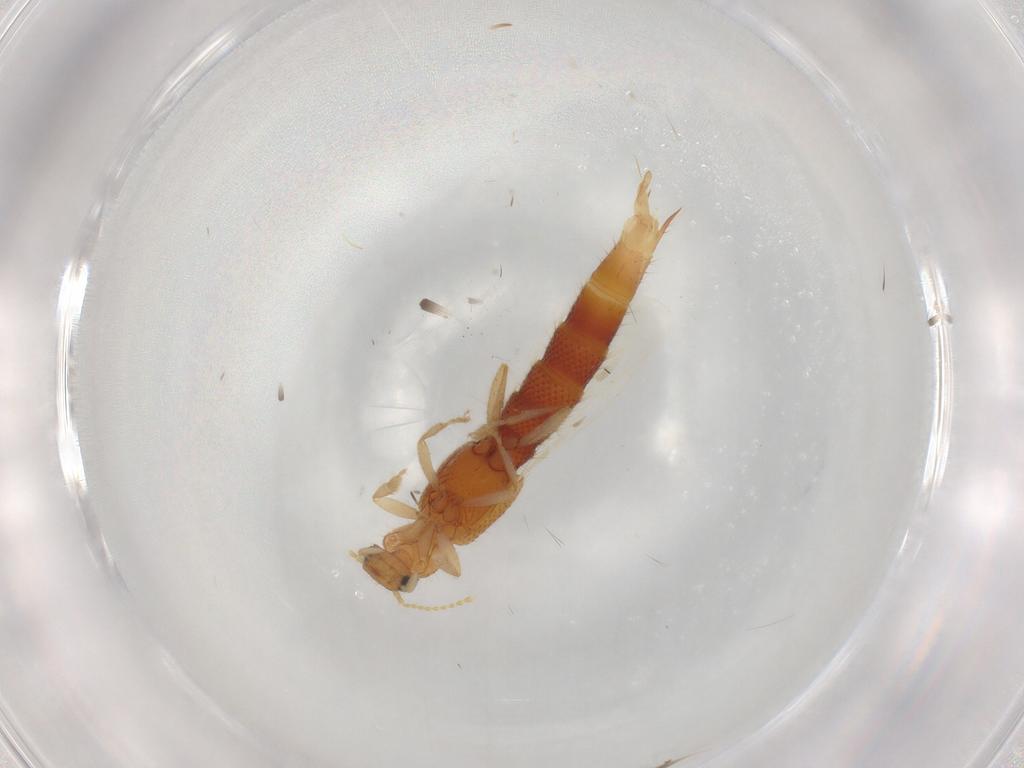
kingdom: Animalia
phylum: Arthropoda
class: Insecta
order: Coleoptera
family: Staphylinidae
